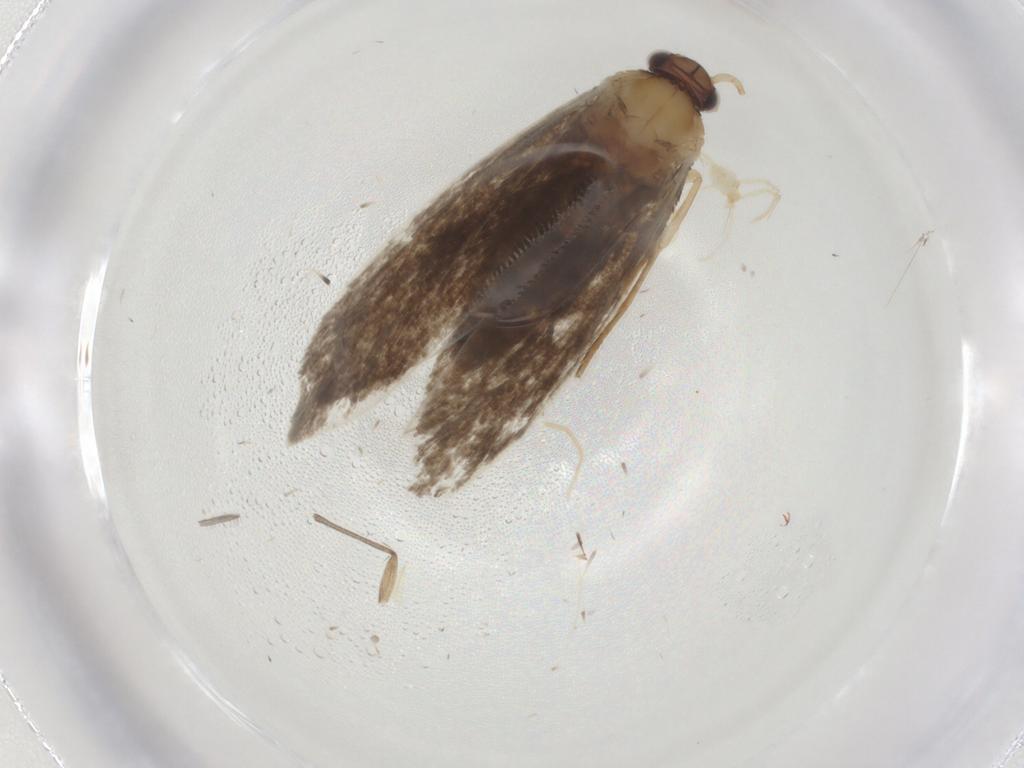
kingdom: Animalia
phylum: Arthropoda
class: Insecta
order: Lepidoptera
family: Tineidae
